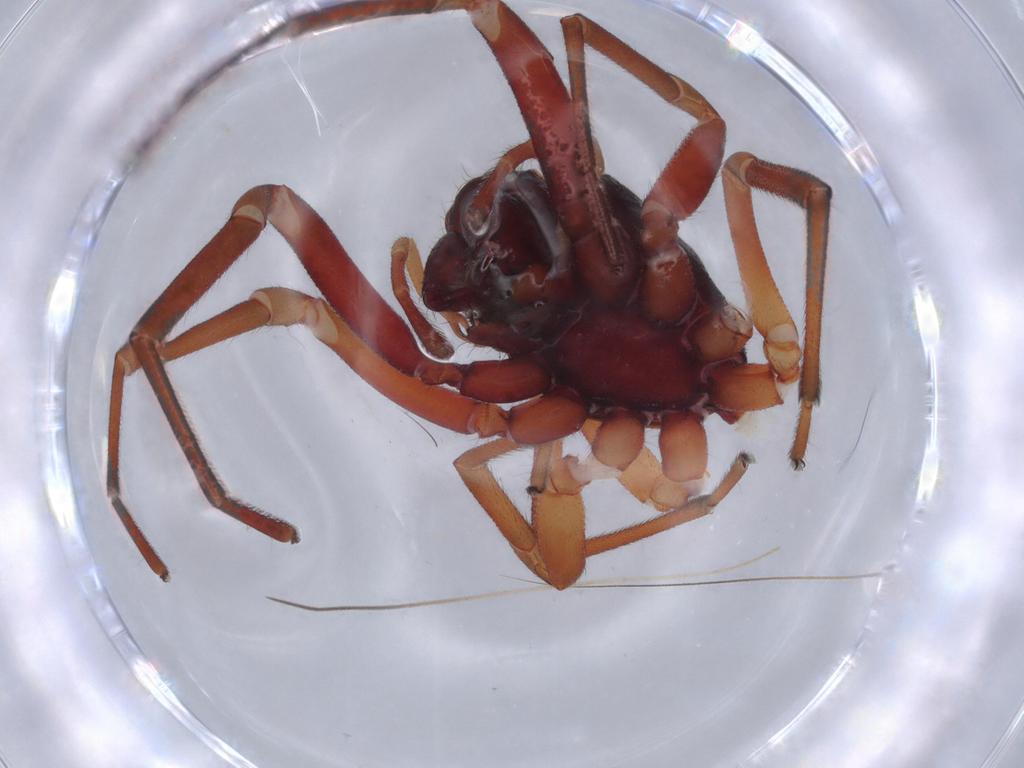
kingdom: Animalia
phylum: Arthropoda
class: Arachnida
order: Araneae
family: Trachelidae
